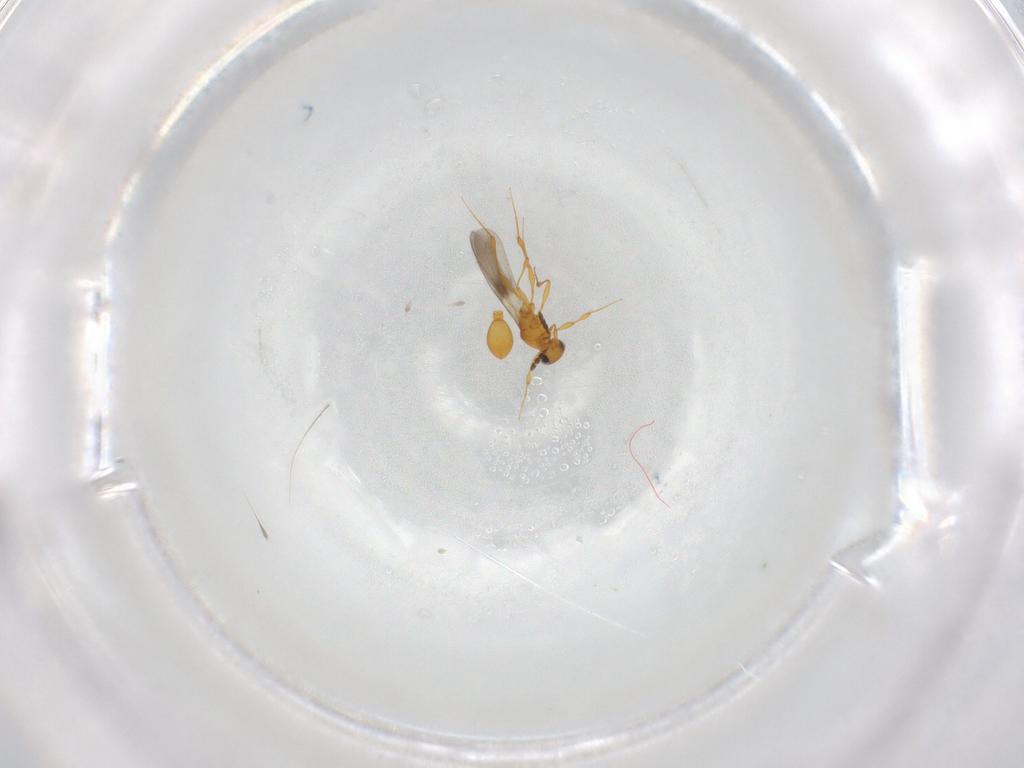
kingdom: Animalia
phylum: Arthropoda
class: Insecta
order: Hymenoptera
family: Platygastridae
